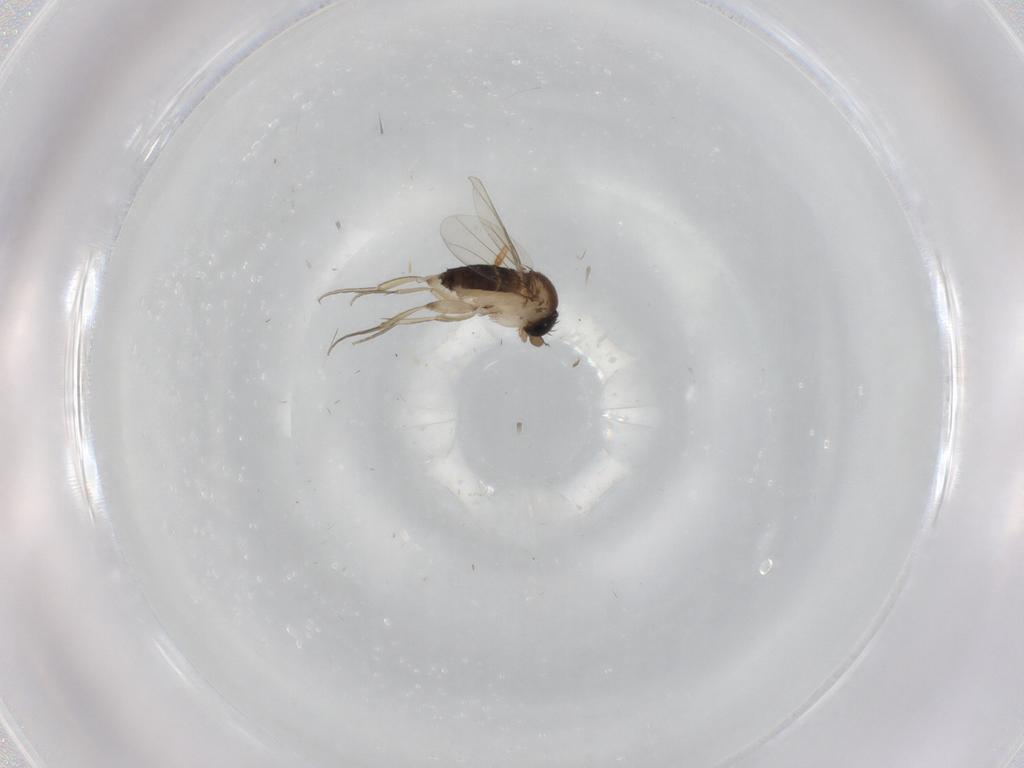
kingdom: Animalia
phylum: Arthropoda
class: Insecta
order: Diptera
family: Phoridae
